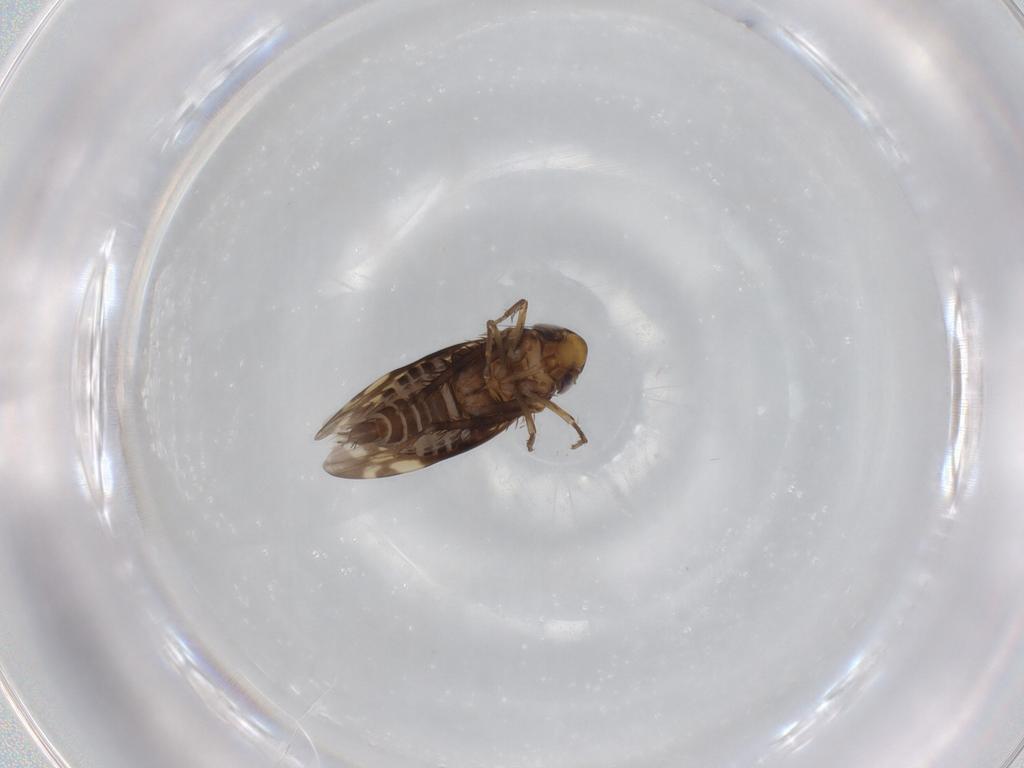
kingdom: Animalia
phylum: Arthropoda
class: Insecta
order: Hemiptera
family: Cicadellidae
